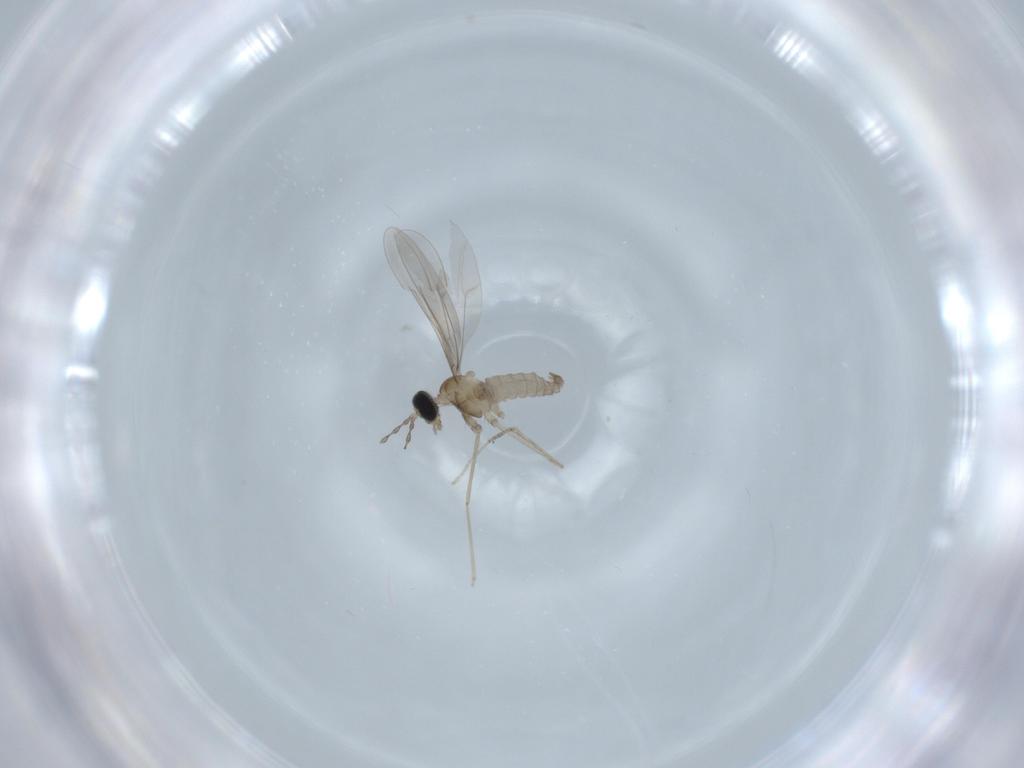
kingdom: Animalia
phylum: Arthropoda
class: Insecta
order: Diptera
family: Cecidomyiidae
